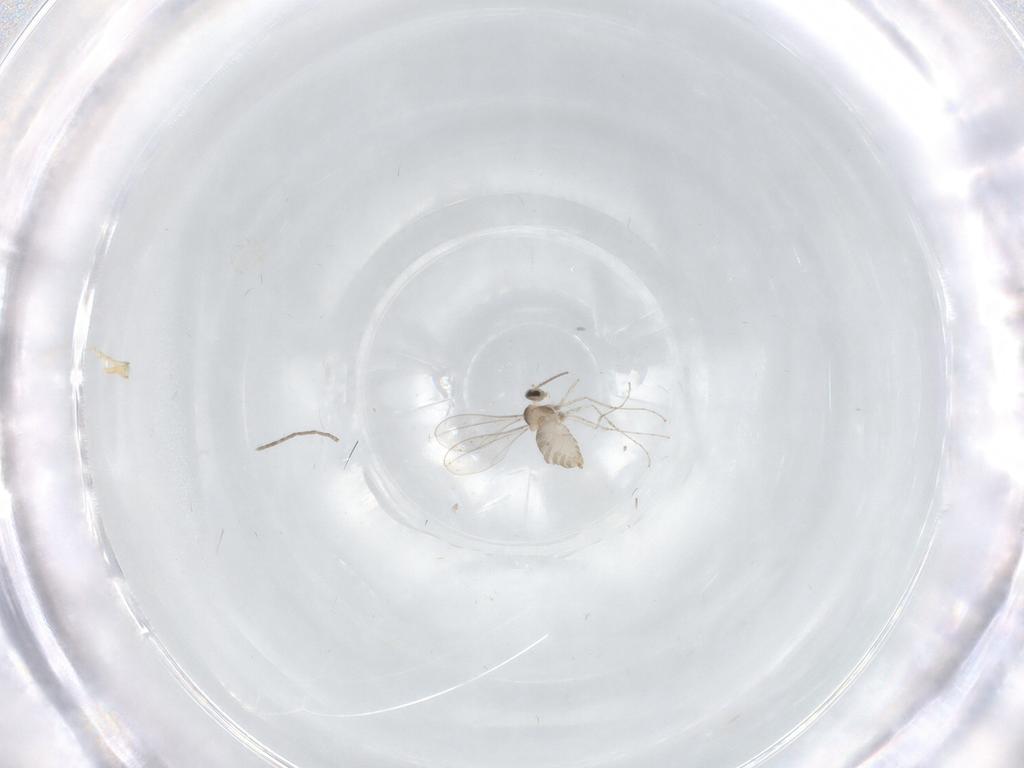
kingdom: Animalia
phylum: Arthropoda
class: Insecta
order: Diptera
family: Cecidomyiidae
